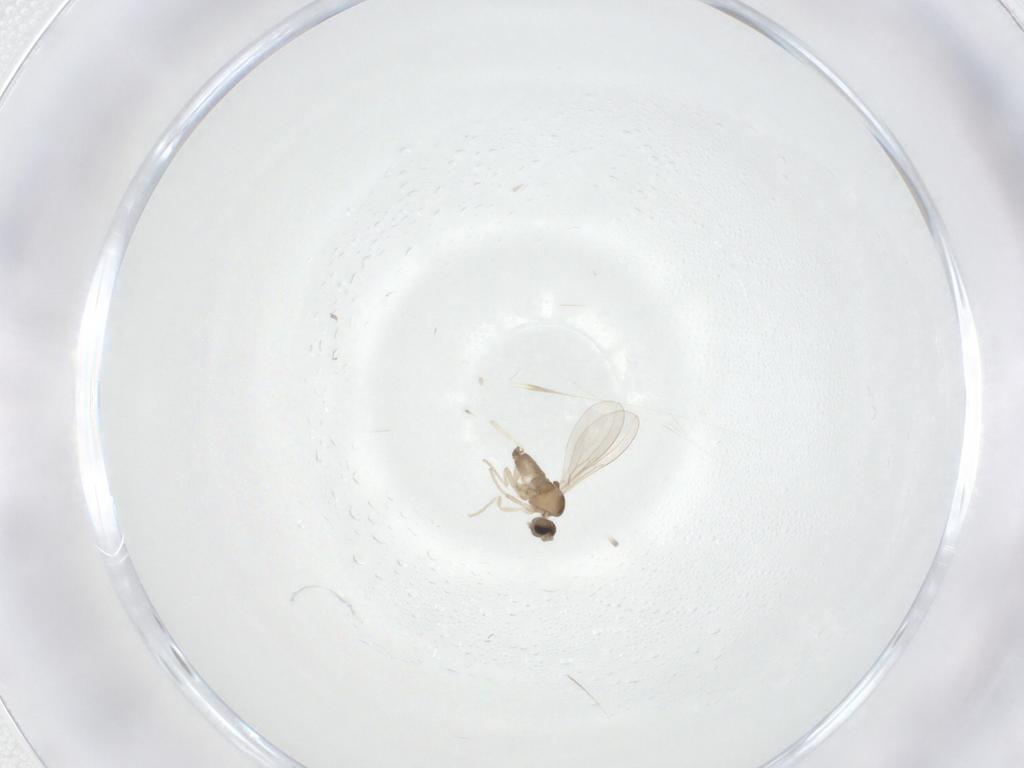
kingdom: Animalia
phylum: Arthropoda
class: Insecta
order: Diptera
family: Cecidomyiidae
